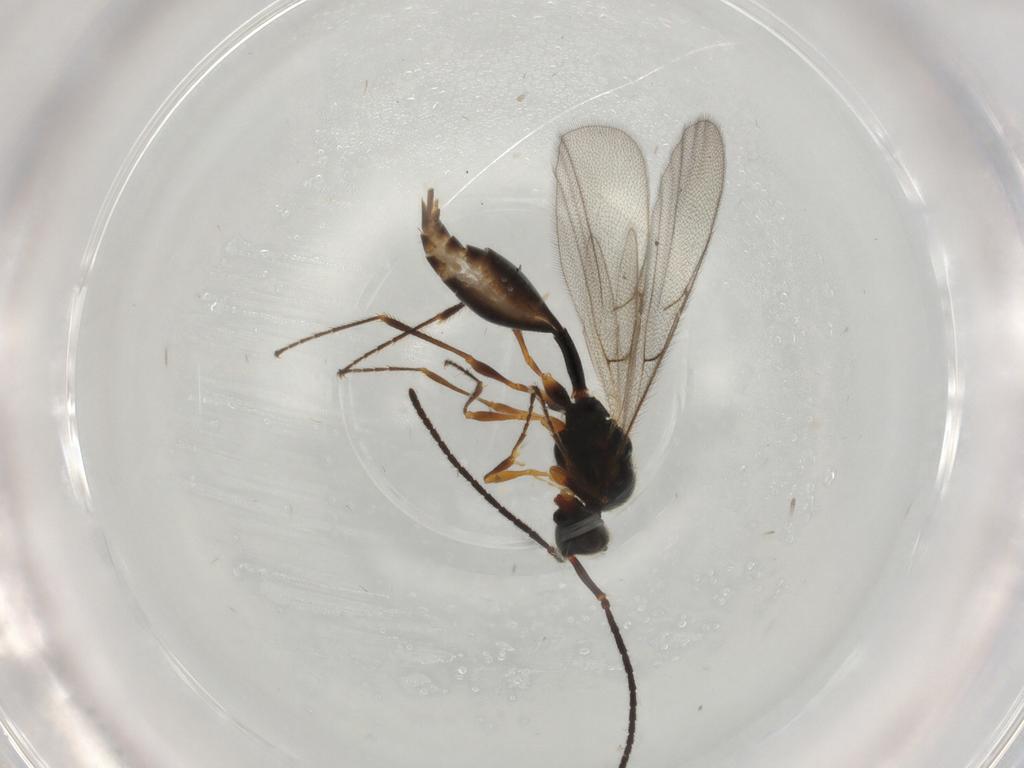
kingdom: Animalia
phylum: Arthropoda
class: Insecta
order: Hymenoptera
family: Diapriidae
